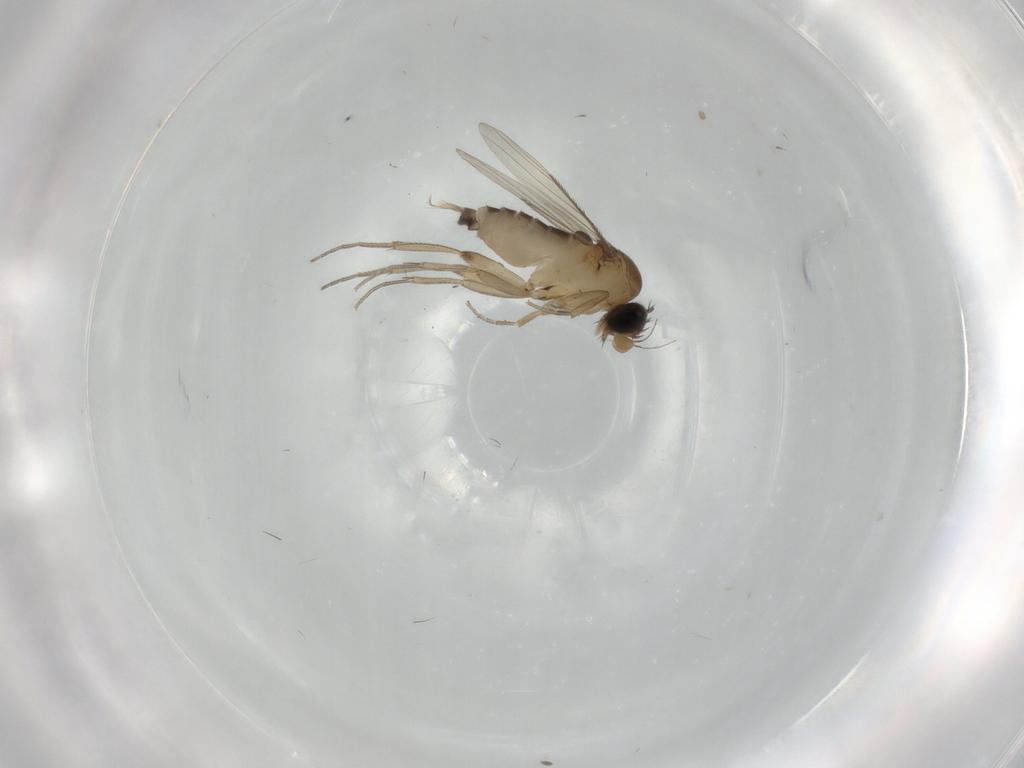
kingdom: Animalia
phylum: Arthropoda
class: Insecta
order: Diptera
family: Phoridae
